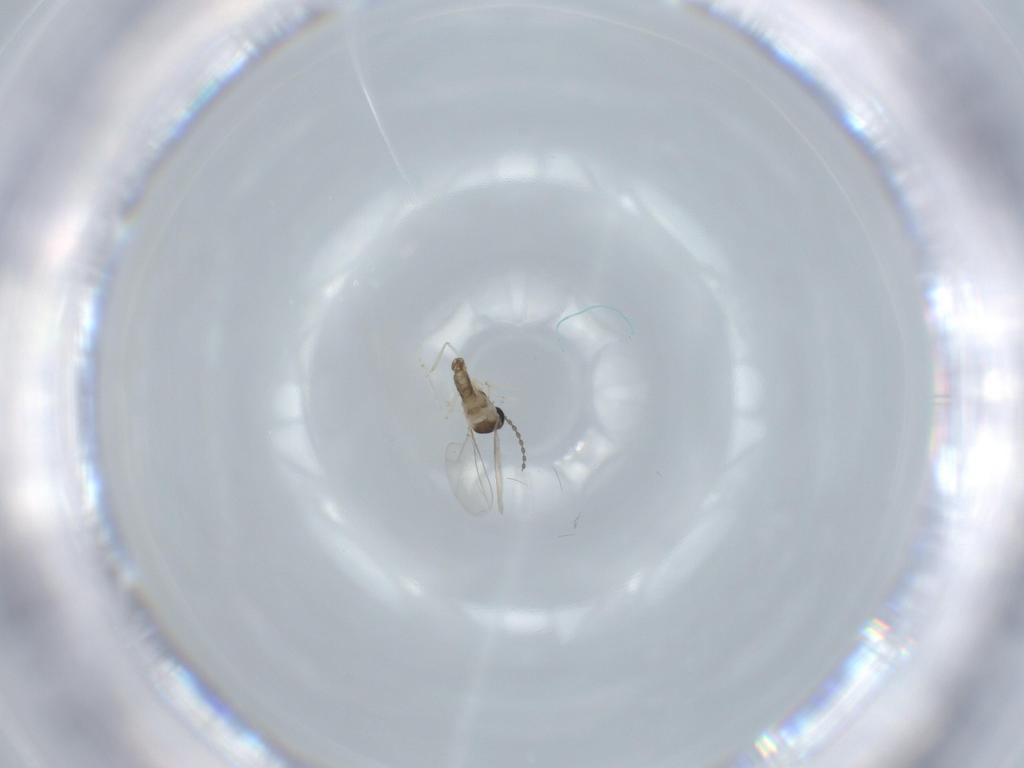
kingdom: Animalia
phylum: Arthropoda
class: Insecta
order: Diptera
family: Cecidomyiidae
